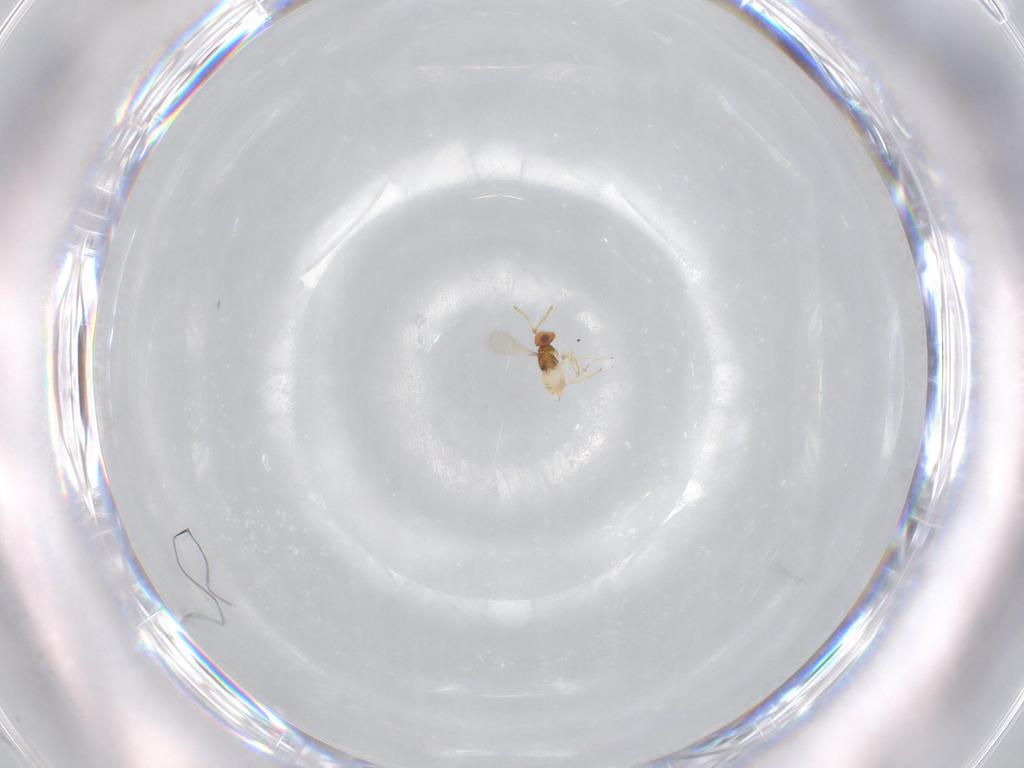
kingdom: Animalia
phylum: Arthropoda
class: Insecta
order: Hymenoptera
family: Aphelinidae
